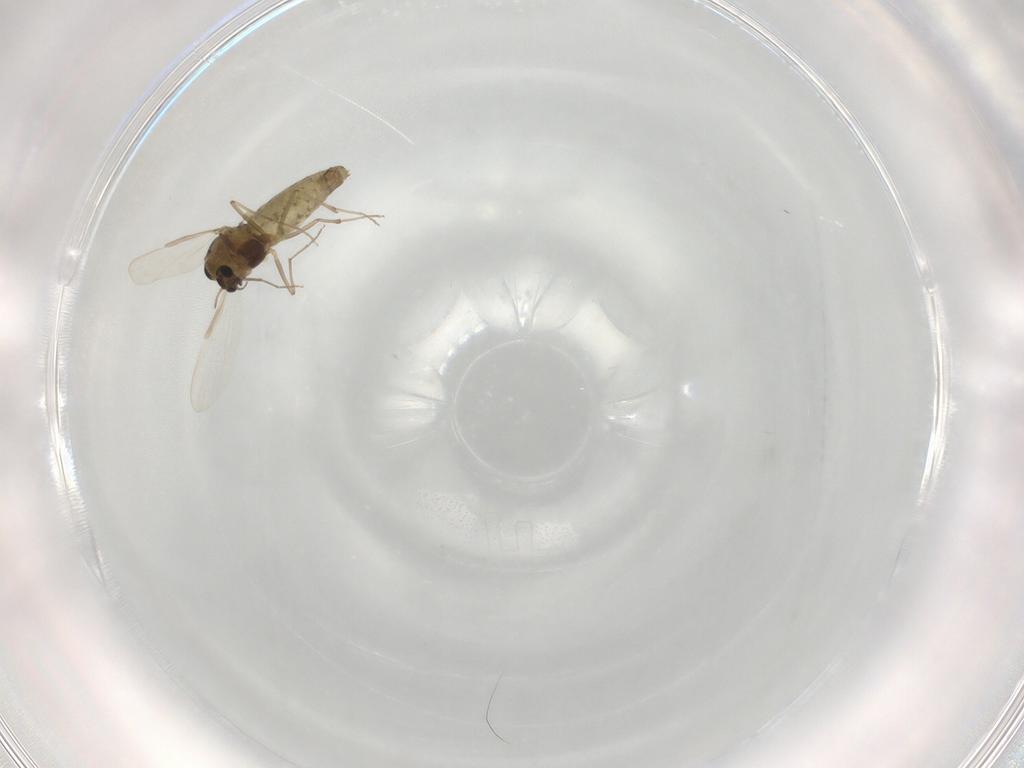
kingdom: Animalia
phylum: Arthropoda
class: Insecta
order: Diptera
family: Chironomidae
